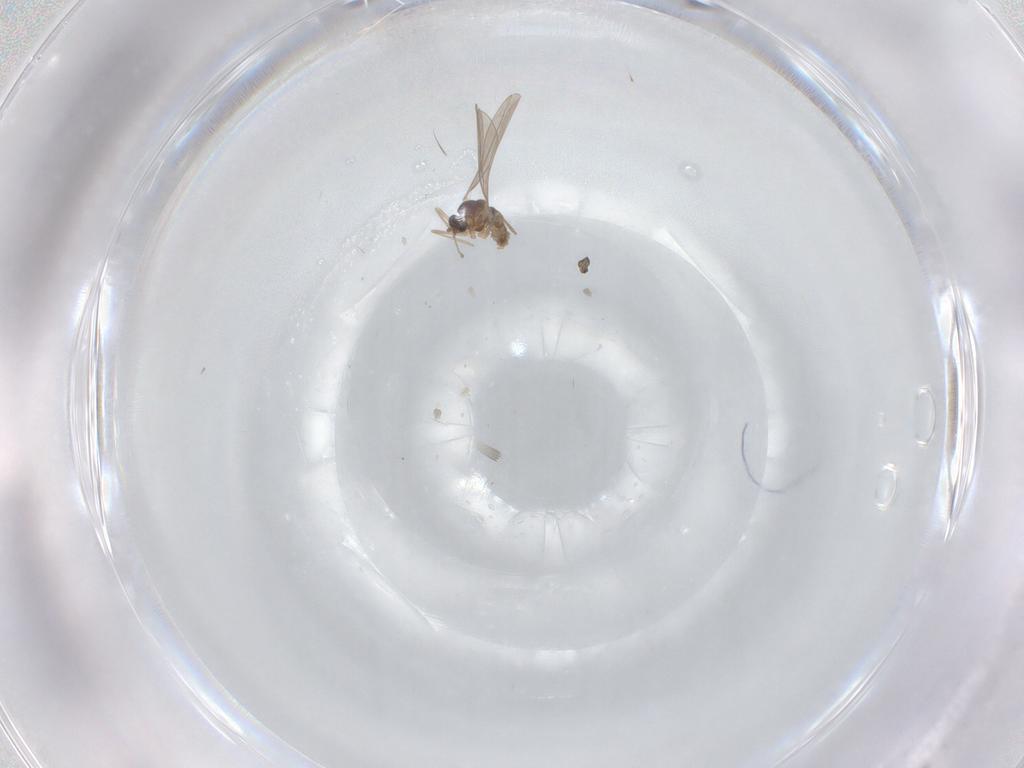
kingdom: Animalia
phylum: Arthropoda
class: Insecta
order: Diptera
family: Cecidomyiidae
